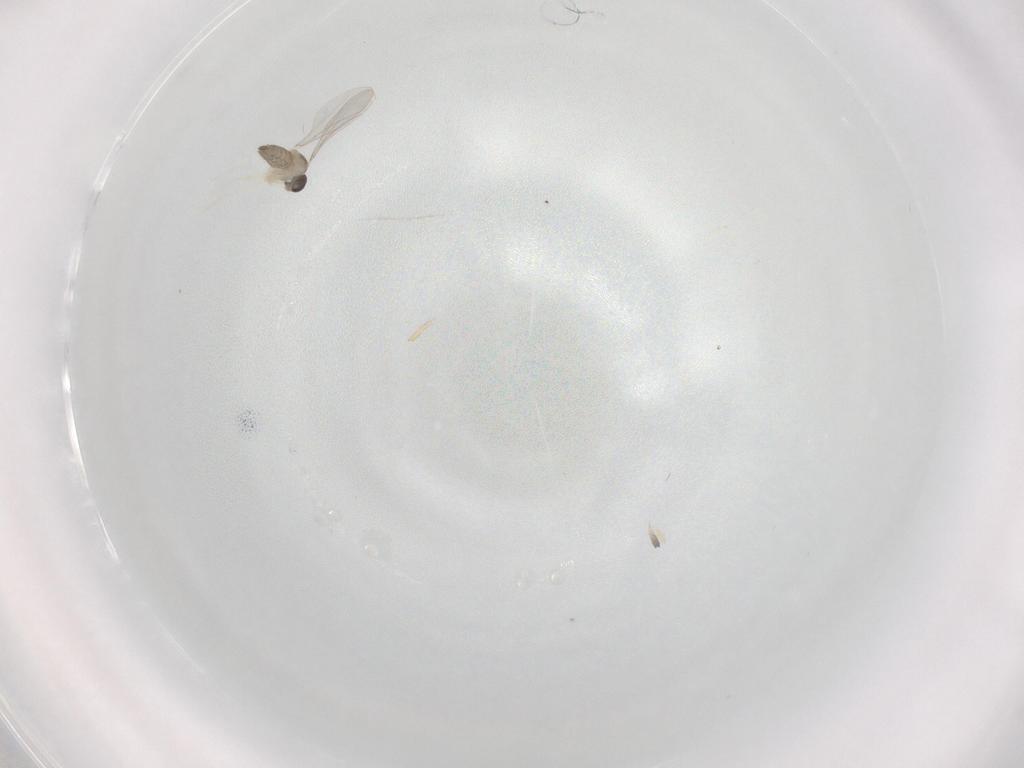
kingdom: Animalia
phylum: Arthropoda
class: Insecta
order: Diptera
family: Cecidomyiidae
